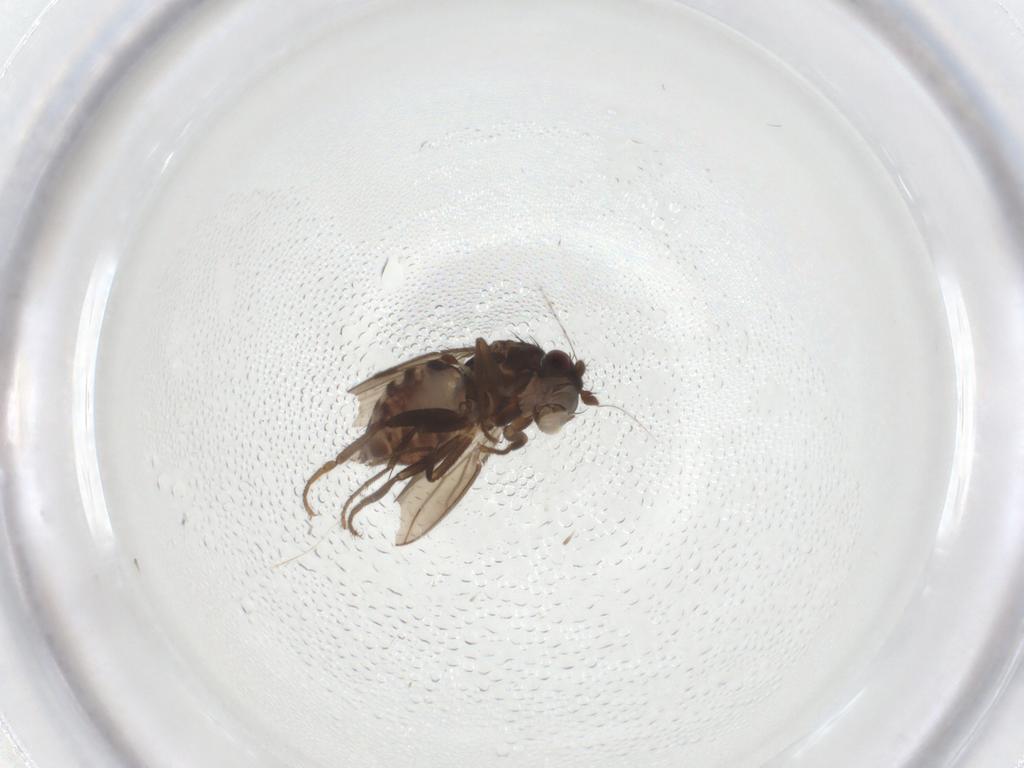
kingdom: Animalia
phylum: Arthropoda
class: Insecta
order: Diptera
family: Sphaeroceridae
